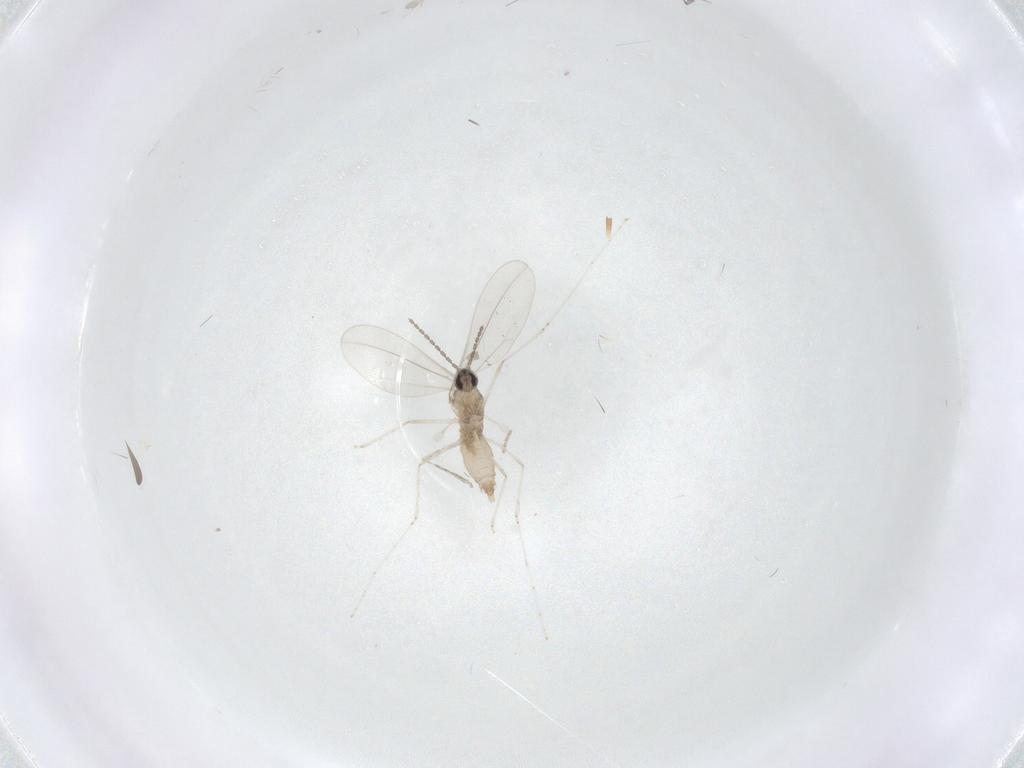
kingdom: Animalia
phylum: Arthropoda
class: Insecta
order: Diptera
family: Cecidomyiidae
